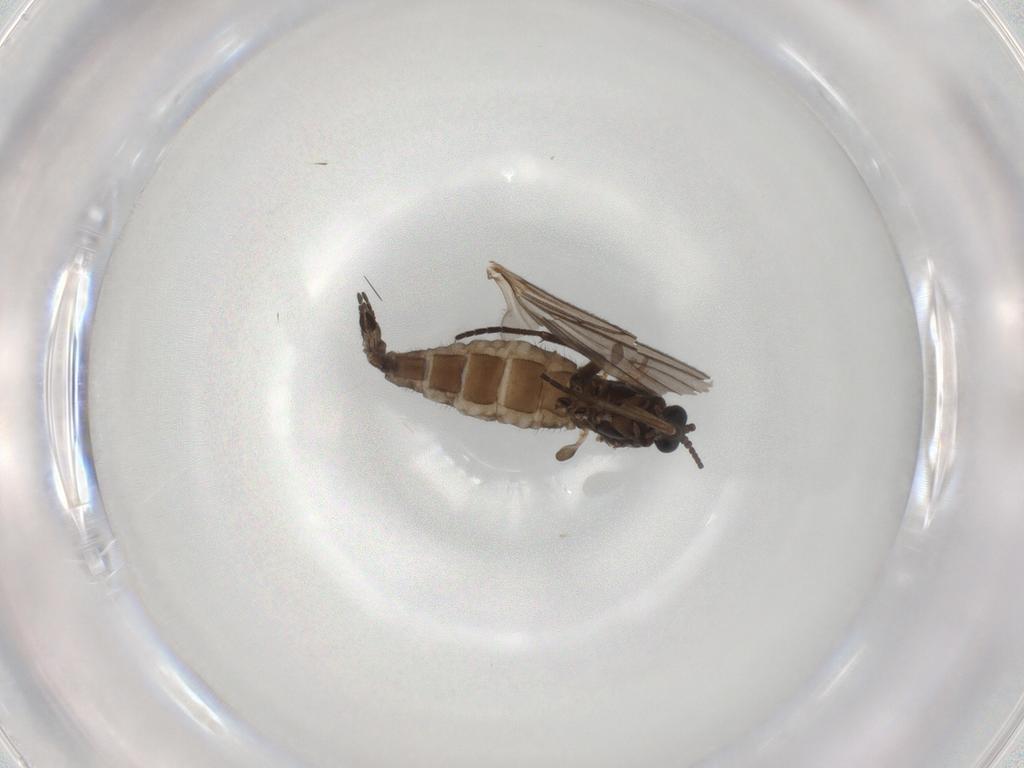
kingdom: Animalia
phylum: Arthropoda
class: Insecta
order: Diptera
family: Sciaridae
